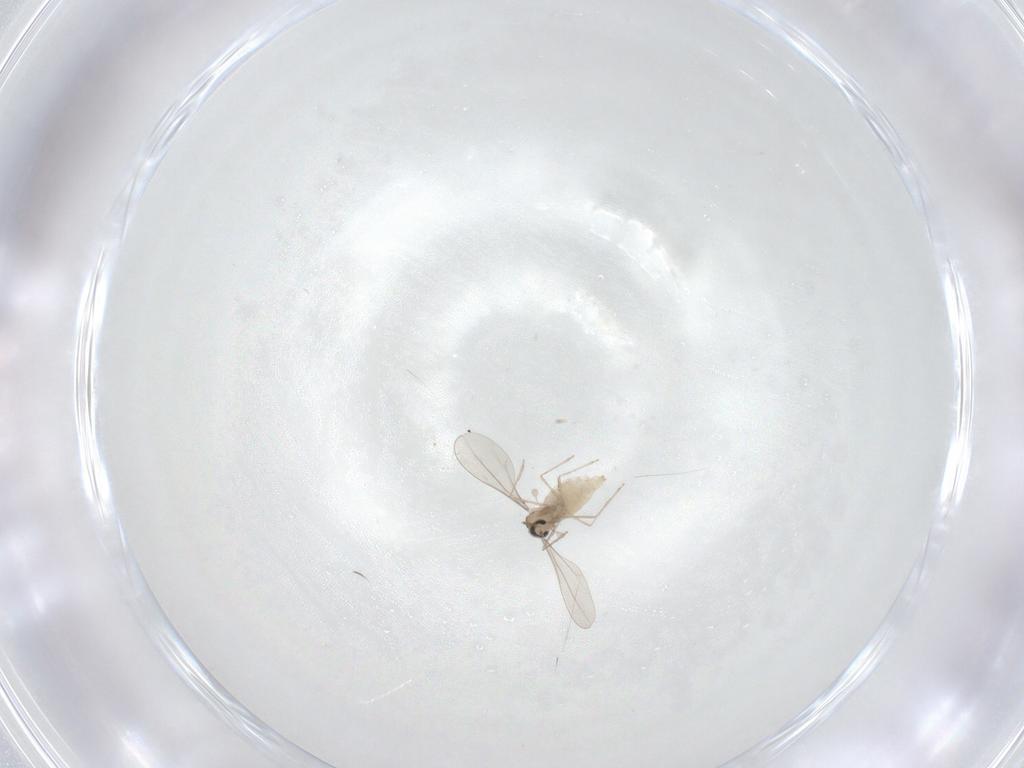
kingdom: Animalia
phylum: Arthropoda
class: Insecta
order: Diptera
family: Cecidomyiidae
